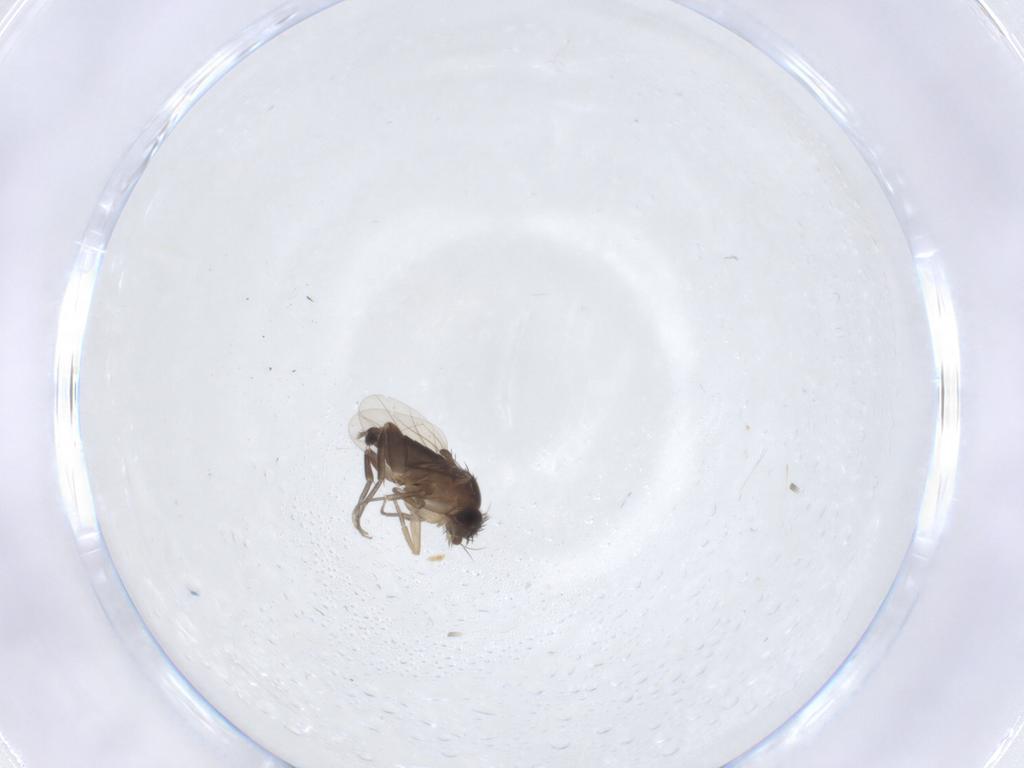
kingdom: Animalia
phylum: Arthropoda
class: Insecta
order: Diptera
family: Phoridae
